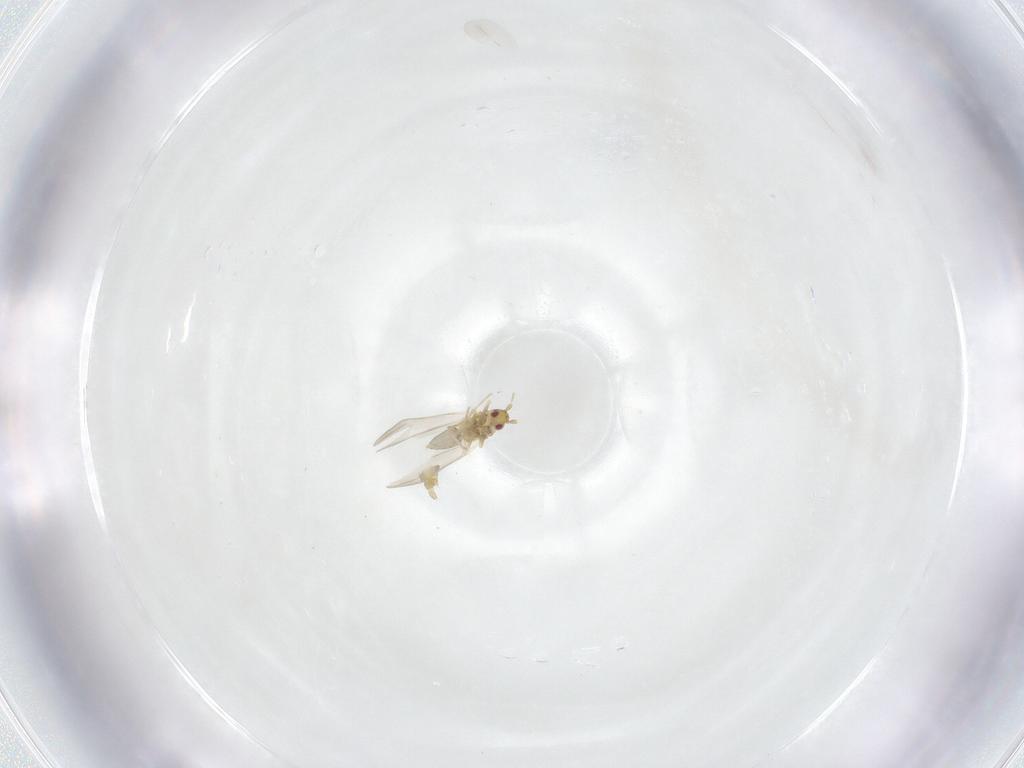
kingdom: Animalia
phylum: Arthropoda
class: Insecta
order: Hemiptera
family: Aleyrodidae
